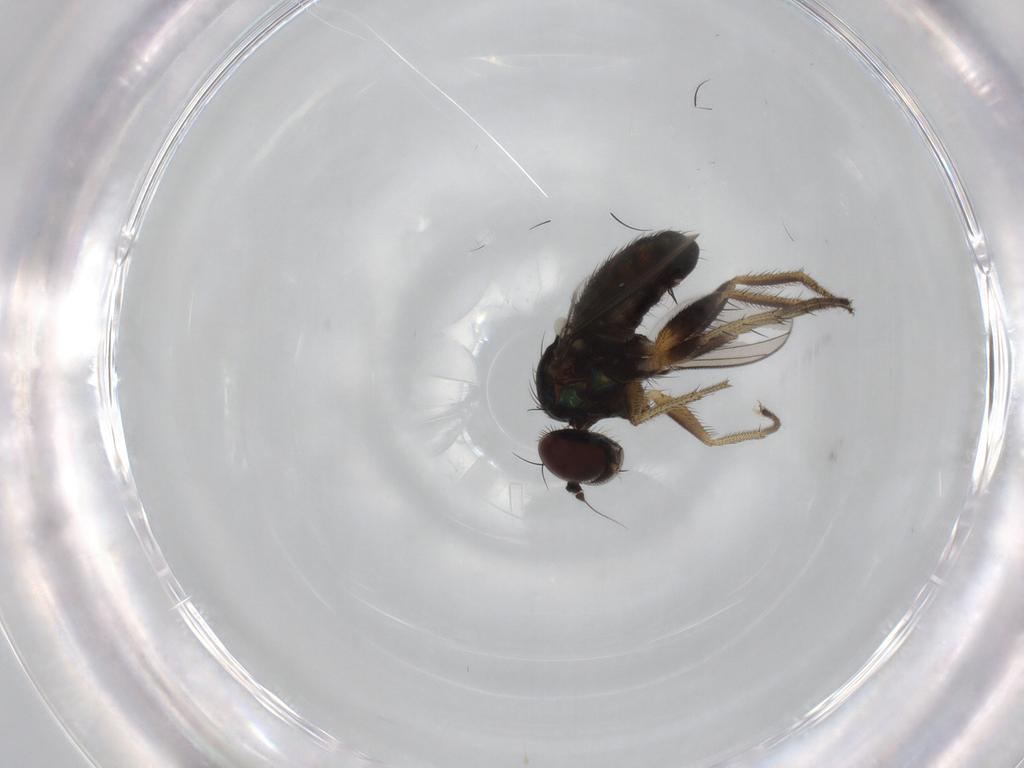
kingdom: Animalia
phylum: Arthropoda
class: Insecta
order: Diptera
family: Dolichopodidae
